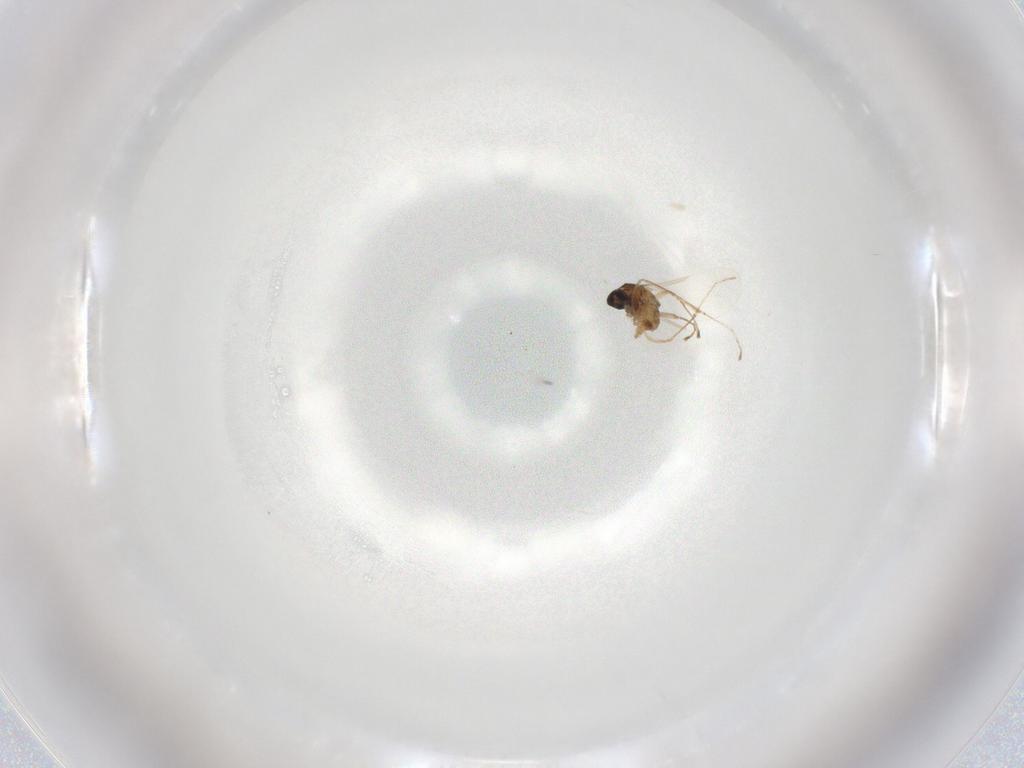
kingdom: Animalia
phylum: Arthropoda
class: Insecta
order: Diptera
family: Cecidomyiidae
